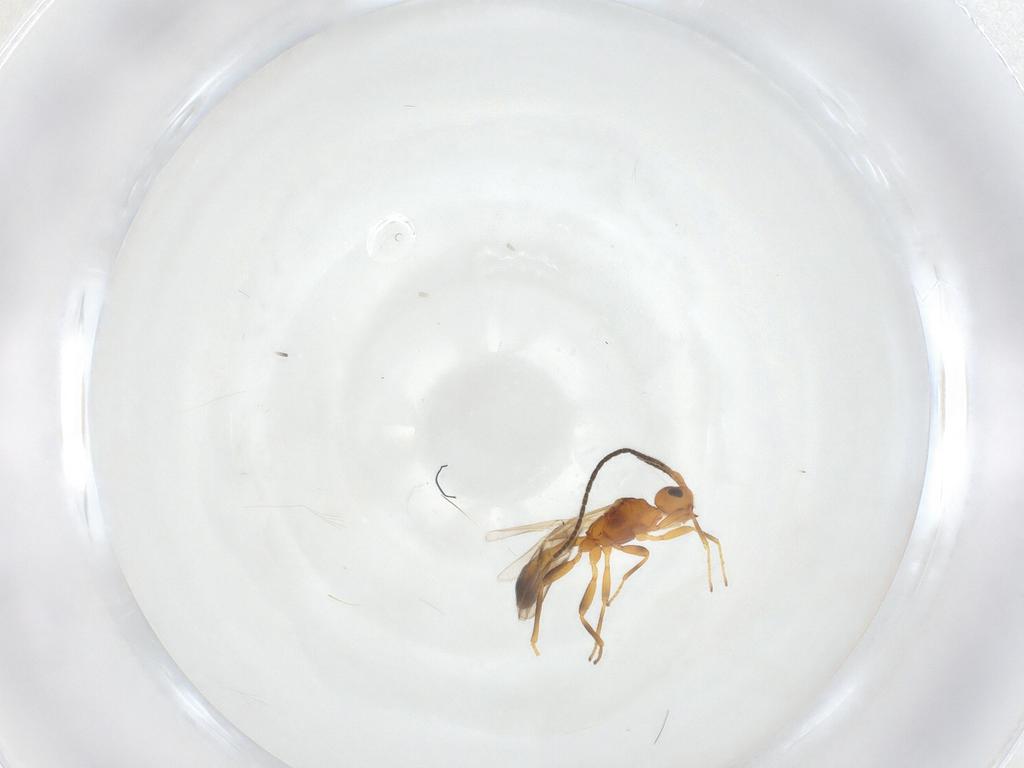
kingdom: Animalia
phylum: Arthropoda
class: Insecta
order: Hymenoptera
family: Braconidae
